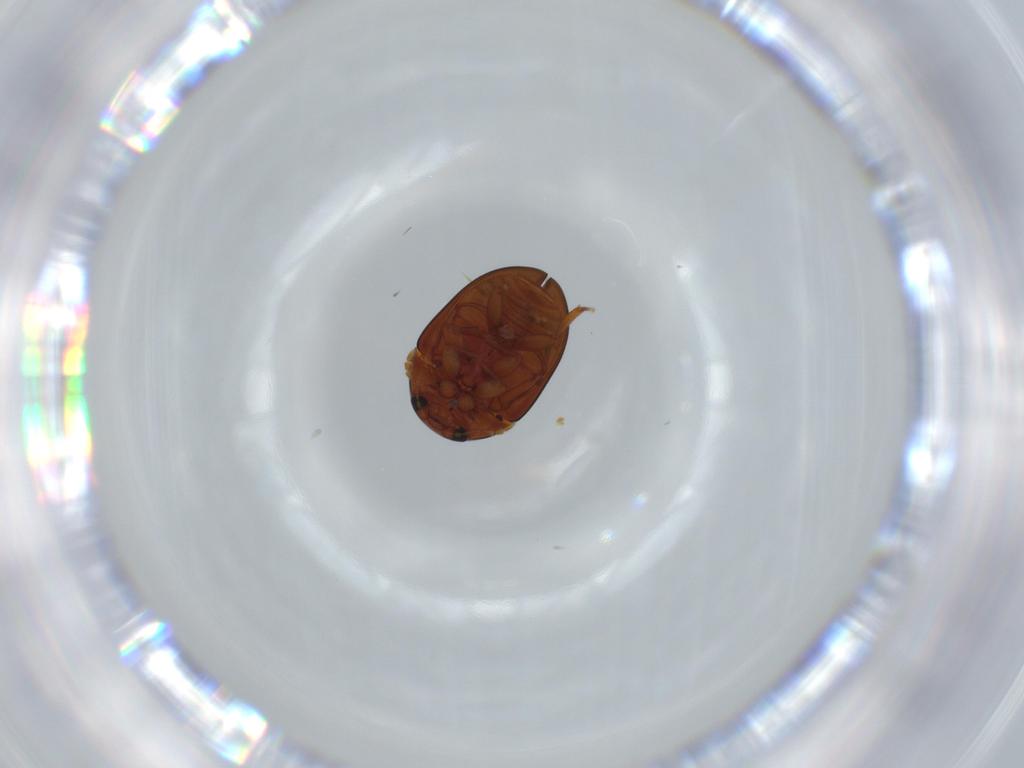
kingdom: Animalia
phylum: Arthropoda
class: Insecta
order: Coleoptera
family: Phalacridae
